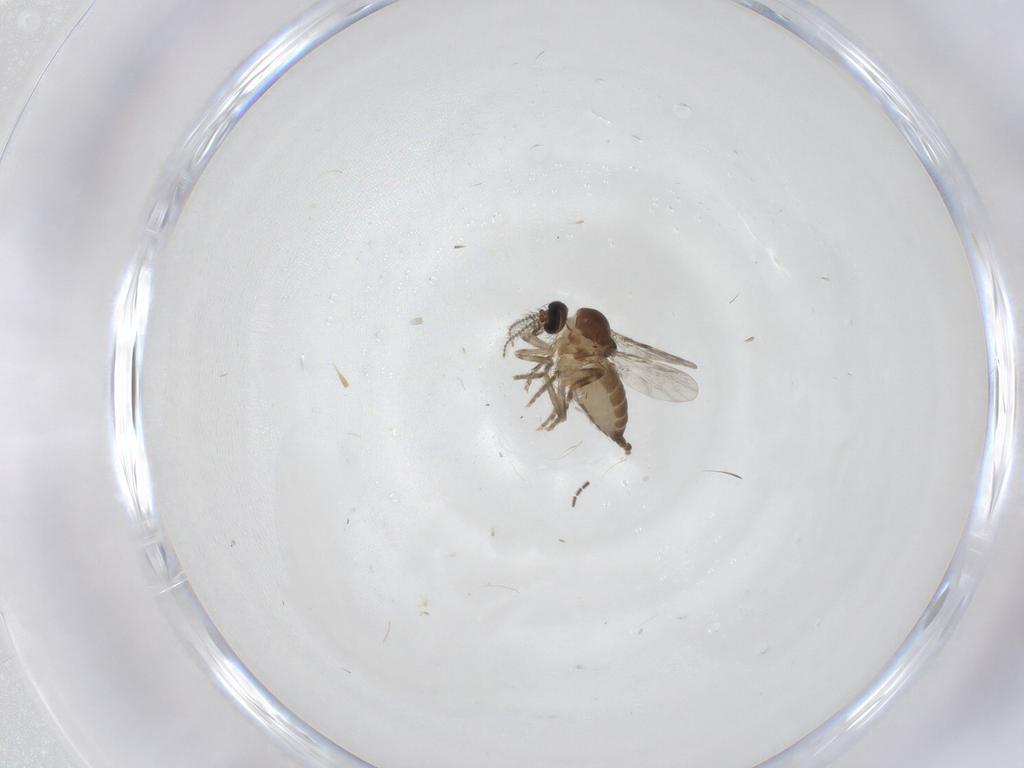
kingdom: Animalia
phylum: Arthropoda
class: Insecta
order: Diptera
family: Ceratopogonidae
